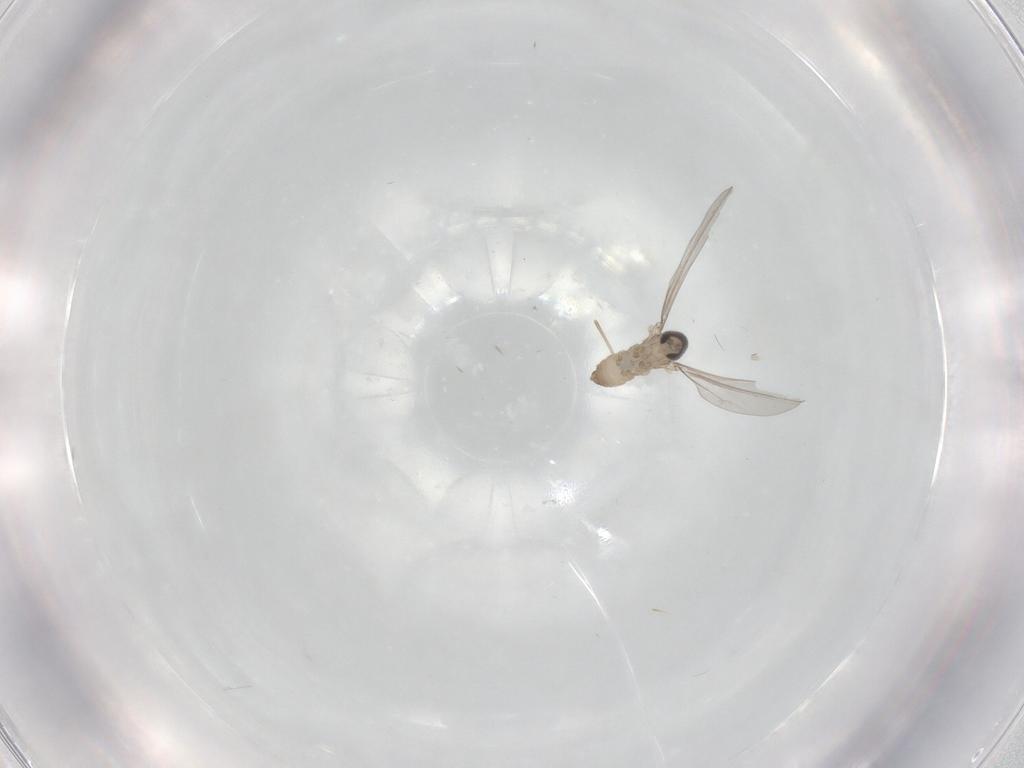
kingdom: Animalia
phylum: Arthropoda
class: Insecta
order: Diptera
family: Cecidomyiidae
